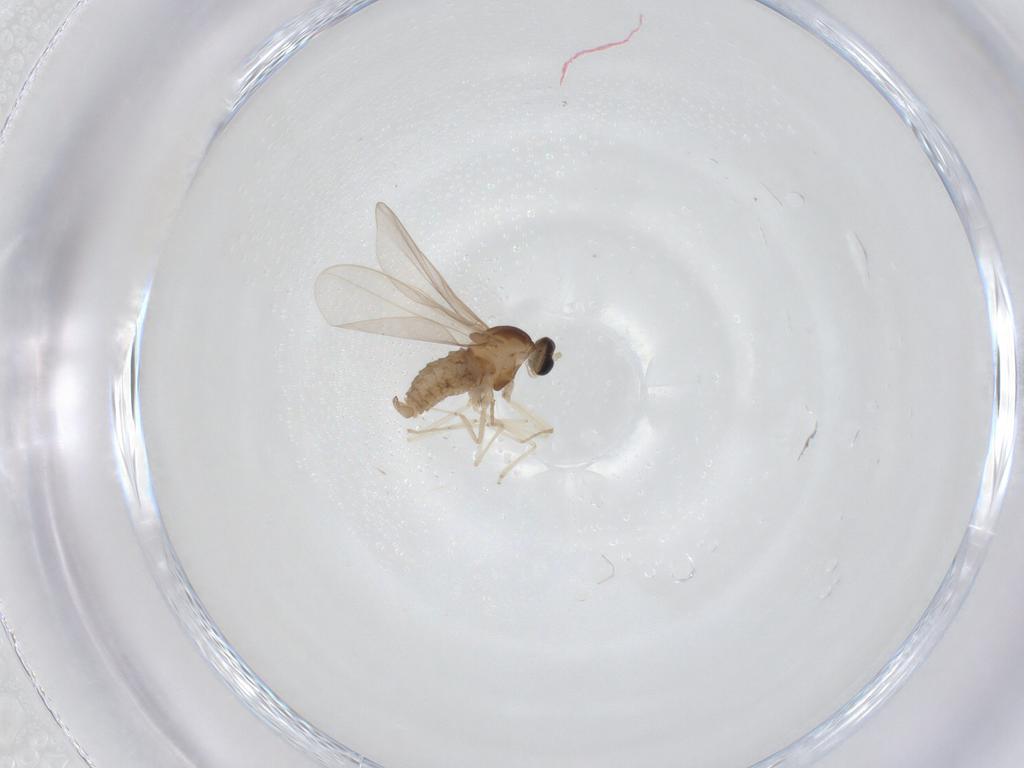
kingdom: Animalia
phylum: Arthropoda
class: Insecta
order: Diptera
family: Cecidomyiidae
